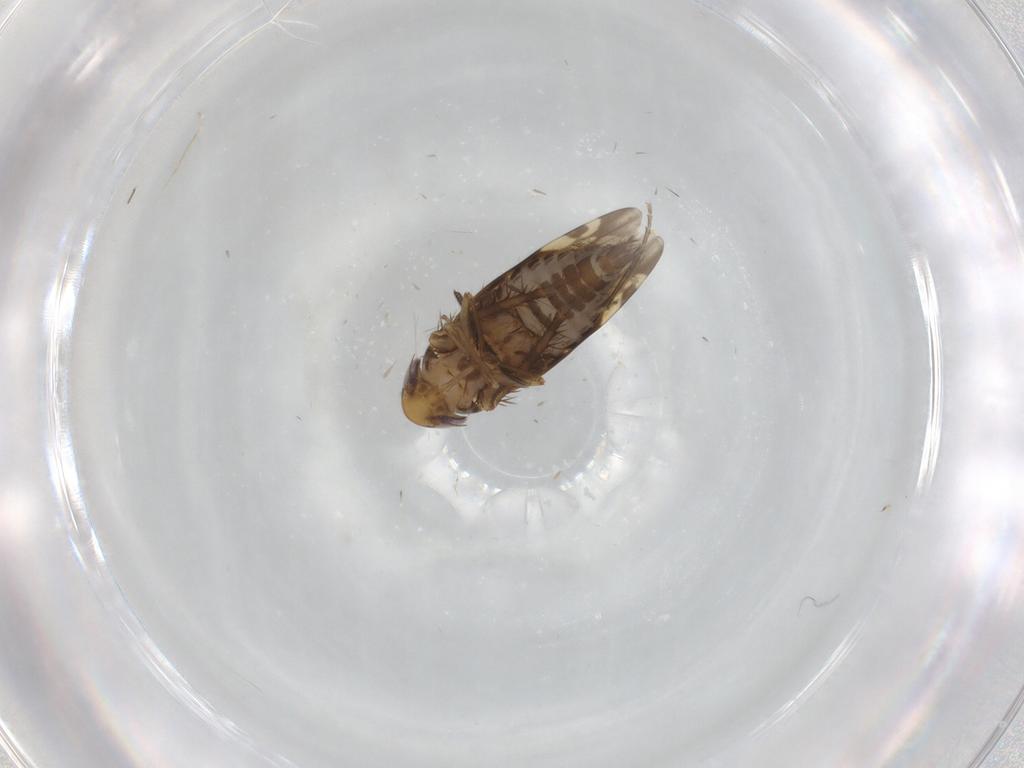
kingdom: Animalia
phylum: Arthropoda
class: Insecta
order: Hemiptera
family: Cicadellidae
